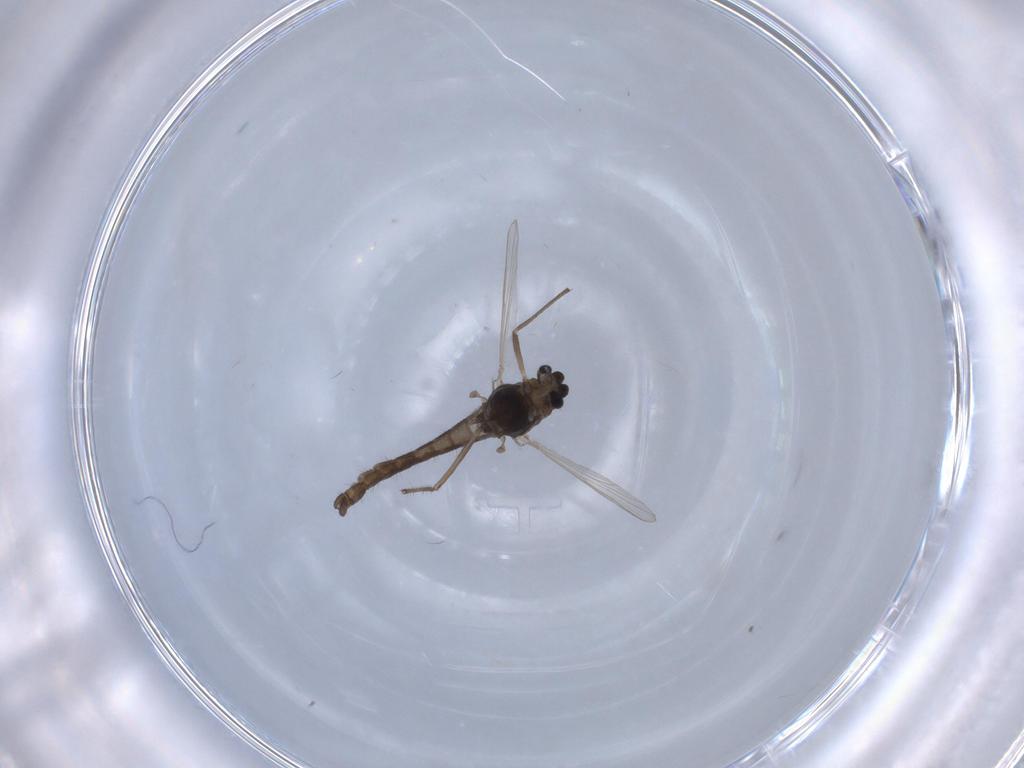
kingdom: Animalia
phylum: Arthropoda
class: Insecta
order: Diptera
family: Chironomidae
